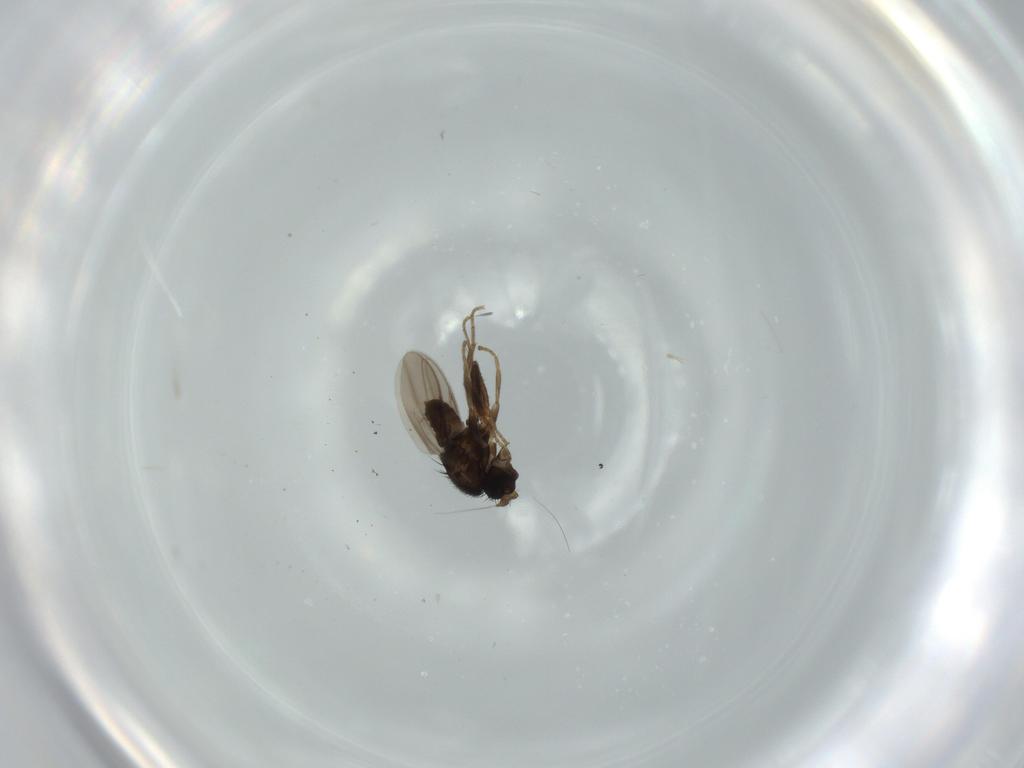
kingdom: Animalia
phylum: Arthropoda
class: Insecta
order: Diptera
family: Sphaeroceridae
